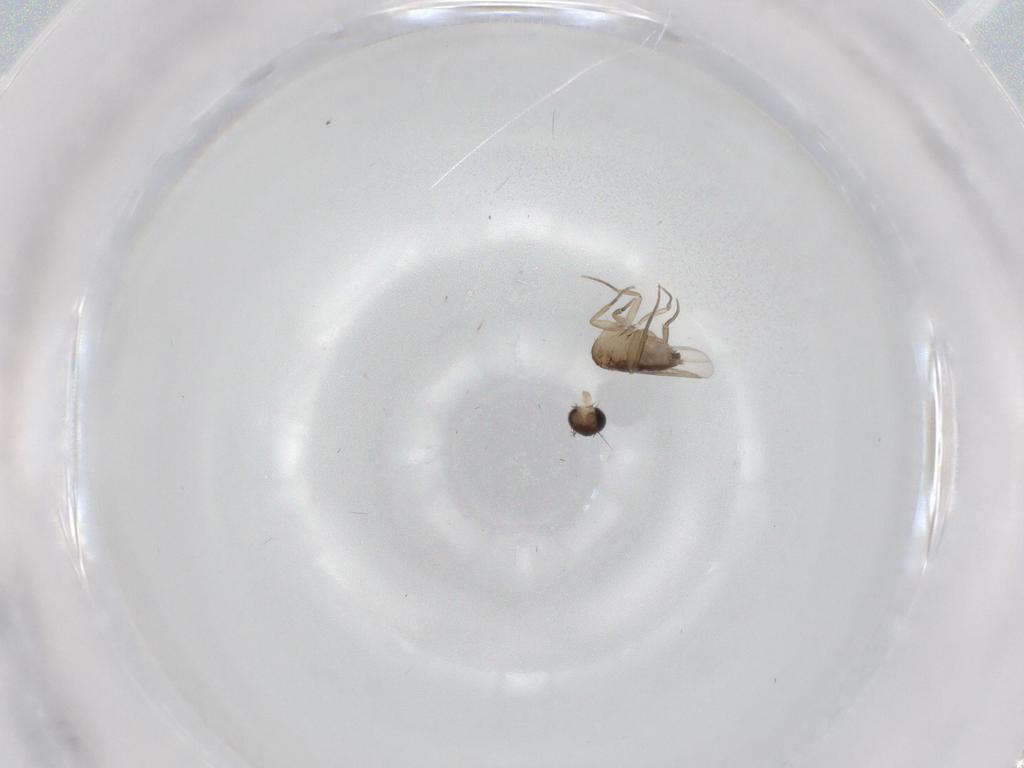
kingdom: Animalia
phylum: Arthropoda
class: Insecta
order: Diptera
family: Phoridae
